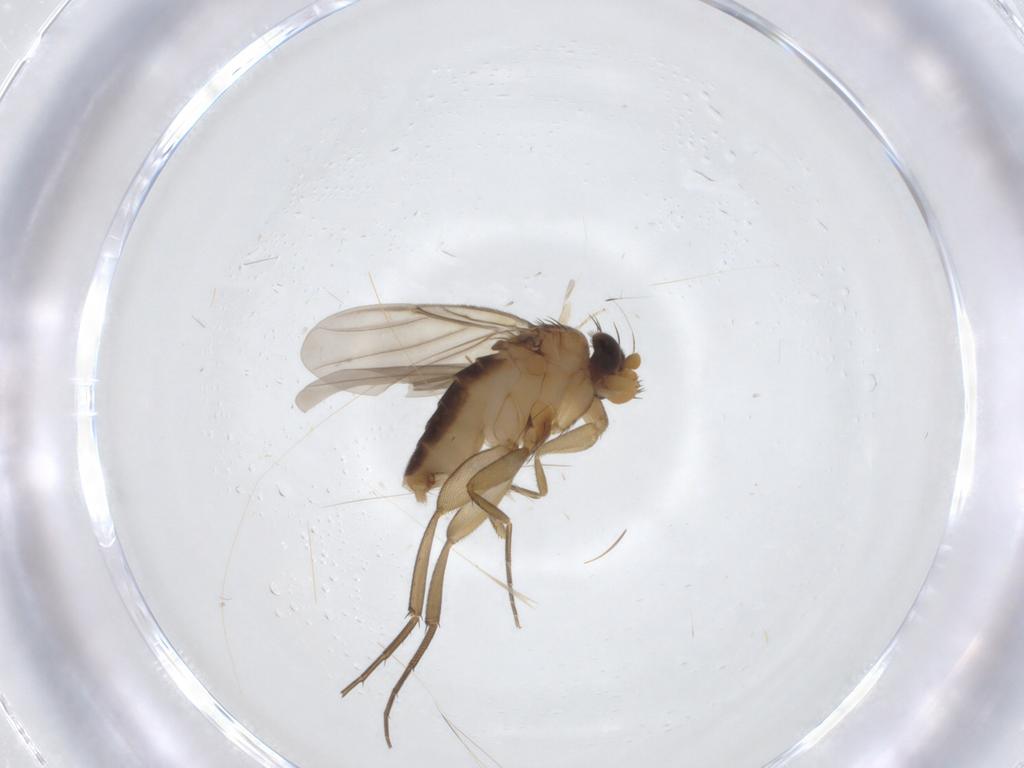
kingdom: Animalia
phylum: Arthropoda
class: Insecta
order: Diptera
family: Ceratopogonidae
